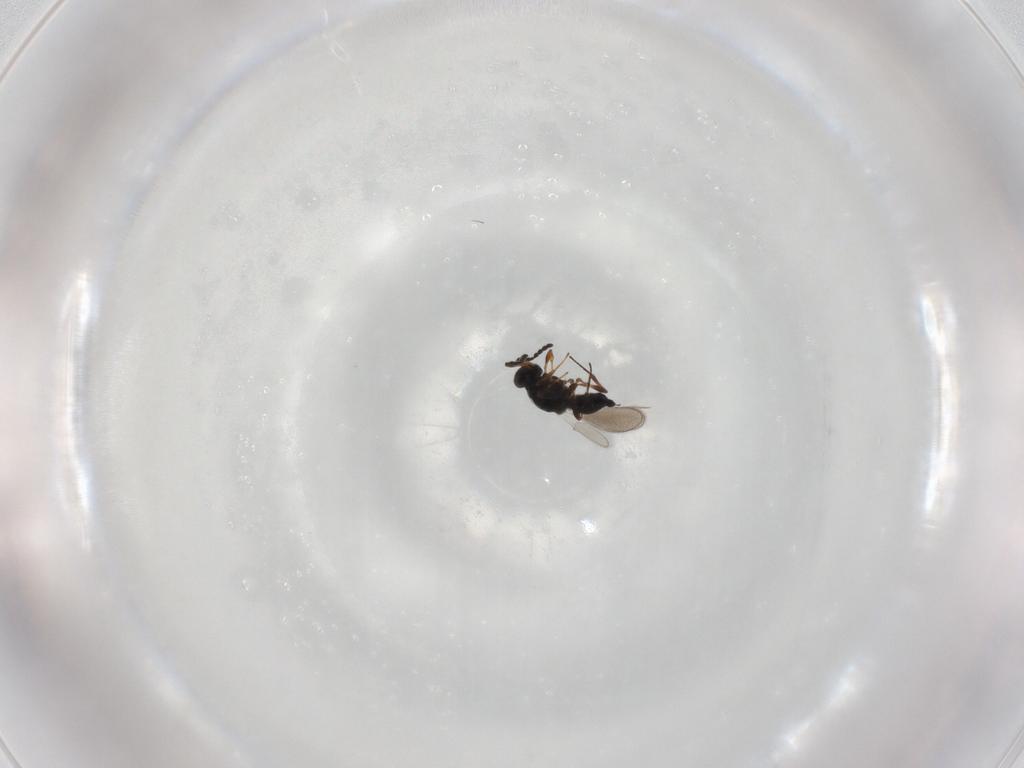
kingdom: Animalia
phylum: Arthropoda
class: Insecta
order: Hymenoptera
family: Platygastridae
